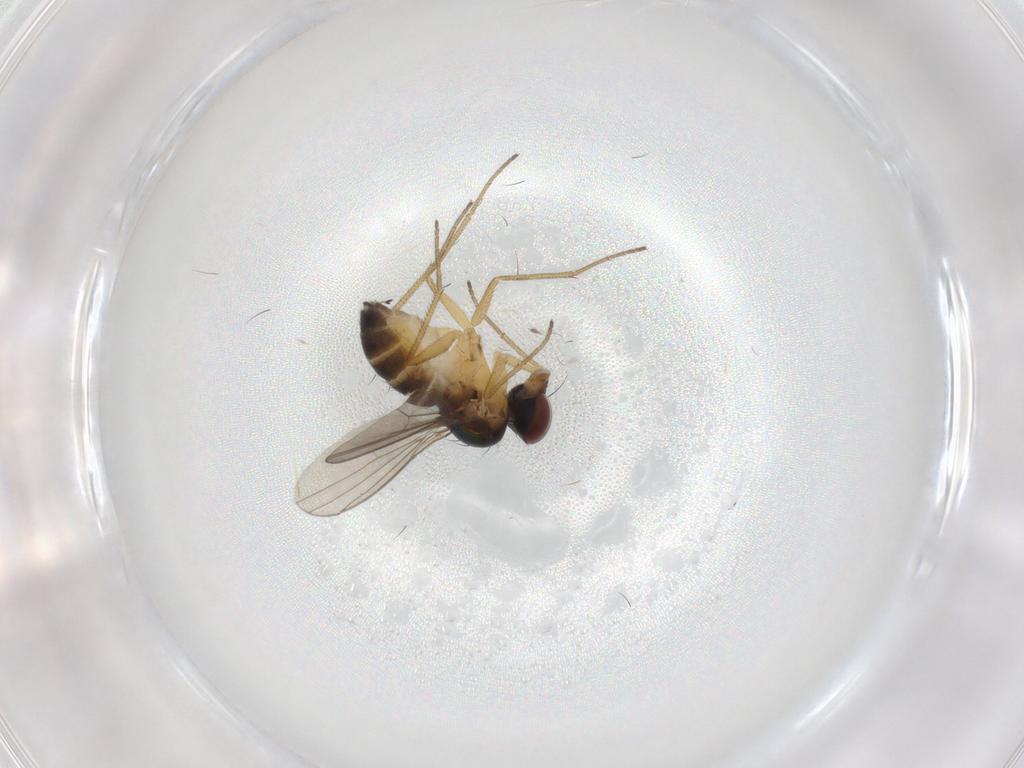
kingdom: Animalia
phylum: Arthropoda
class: Insecta
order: Diptera
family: Dolichopodidae
